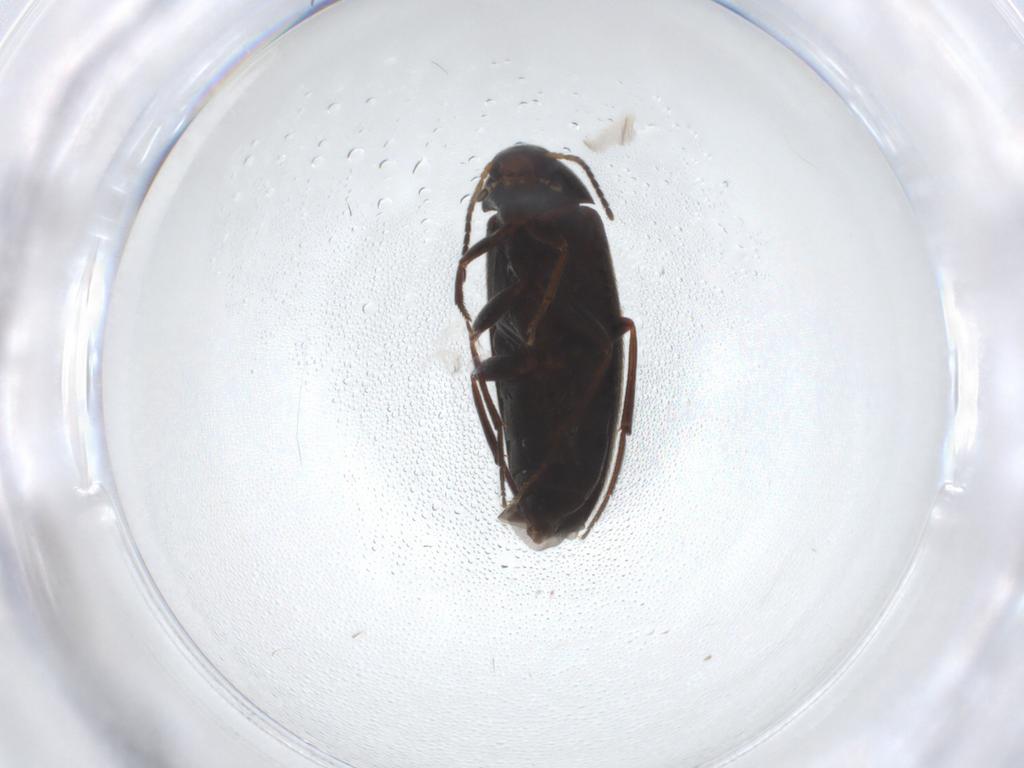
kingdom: Animalia
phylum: Arthropoda
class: Insecta
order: Coleoptera
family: Melandryidae
